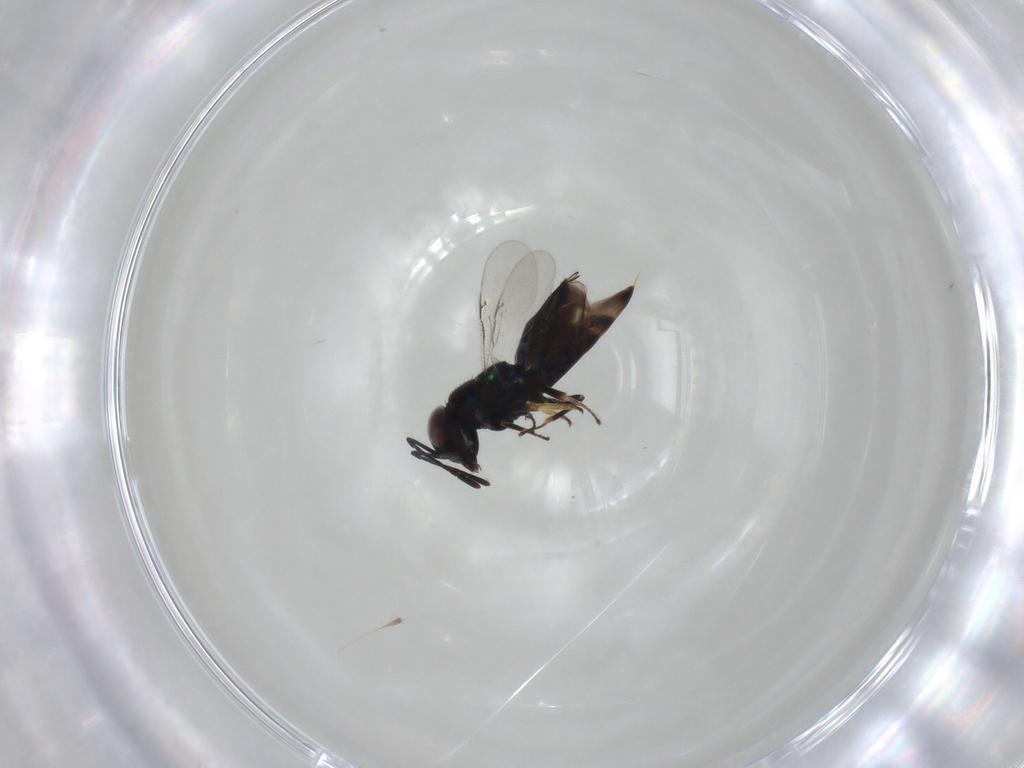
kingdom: Animalia
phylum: Arthropoda
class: Insecta
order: Hymenoptera
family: Encyrtidae
